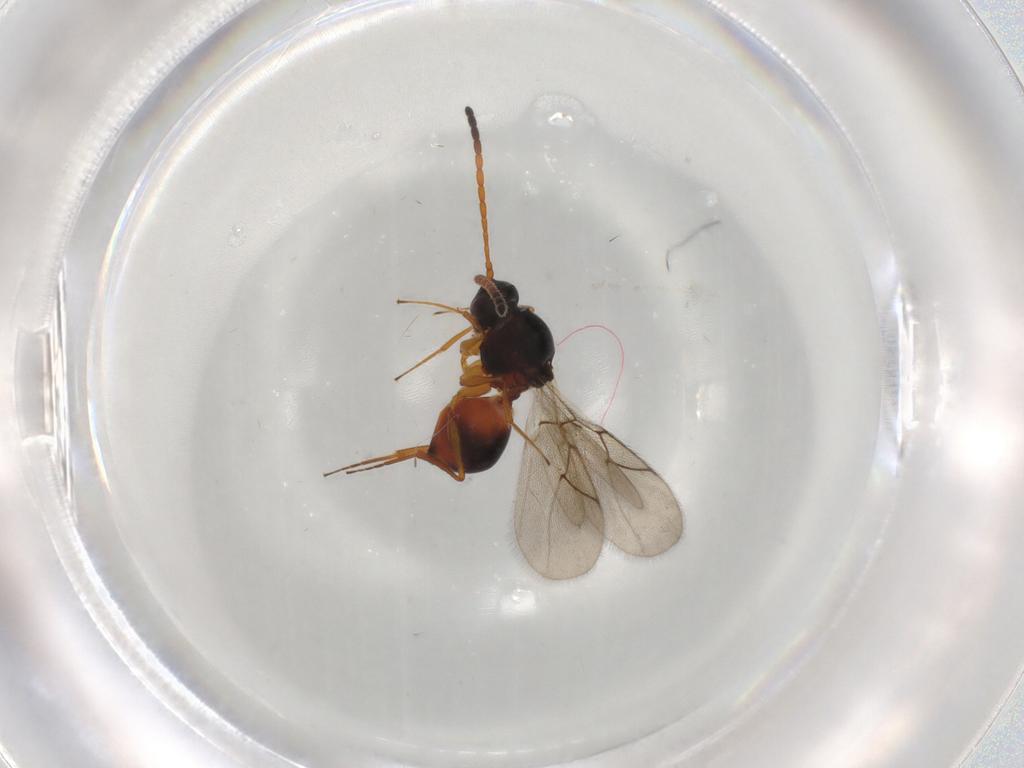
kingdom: Animalia
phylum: Arthropoda
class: Insecta
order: Hymenoptera
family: Figitidae
